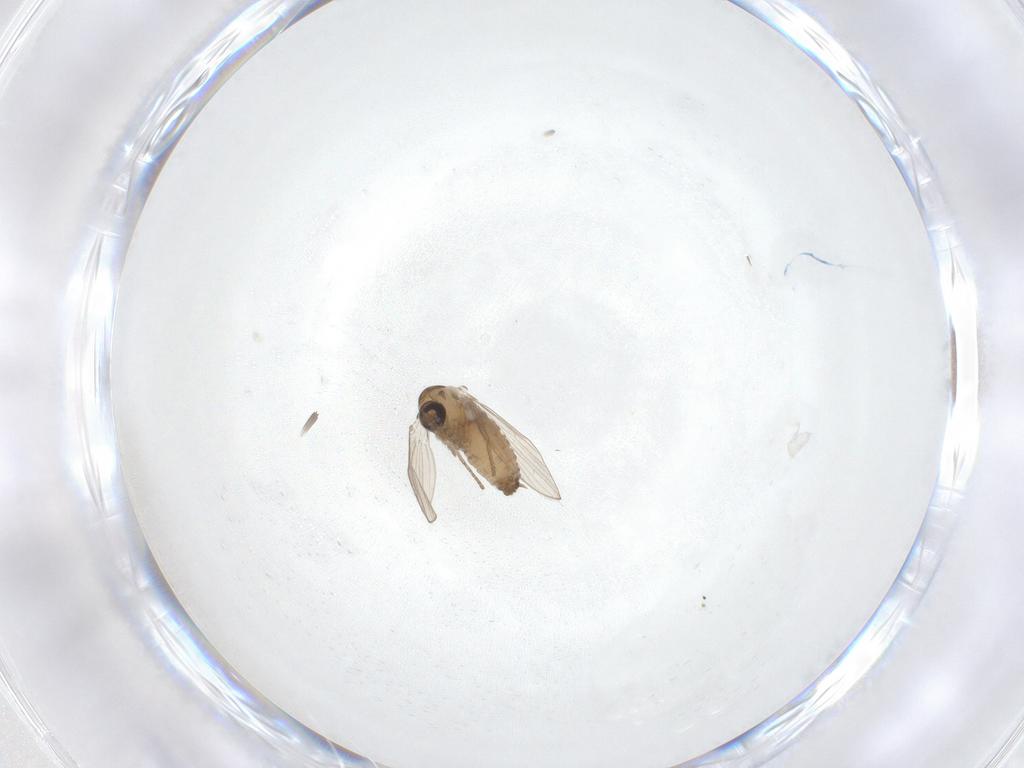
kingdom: Animalia
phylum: Arthropoda
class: Insecta
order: Diptera
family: Psychodidae
